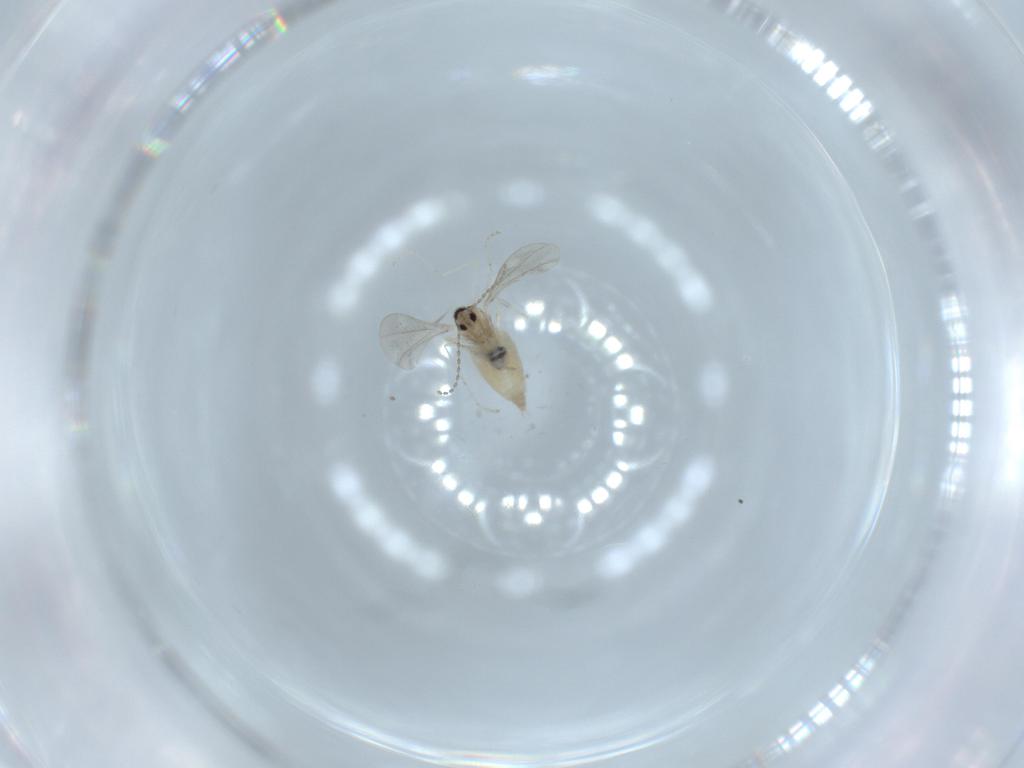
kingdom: Animalia
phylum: Arthropoda
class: Insecta
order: Diptera
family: Cecidomyiidae
